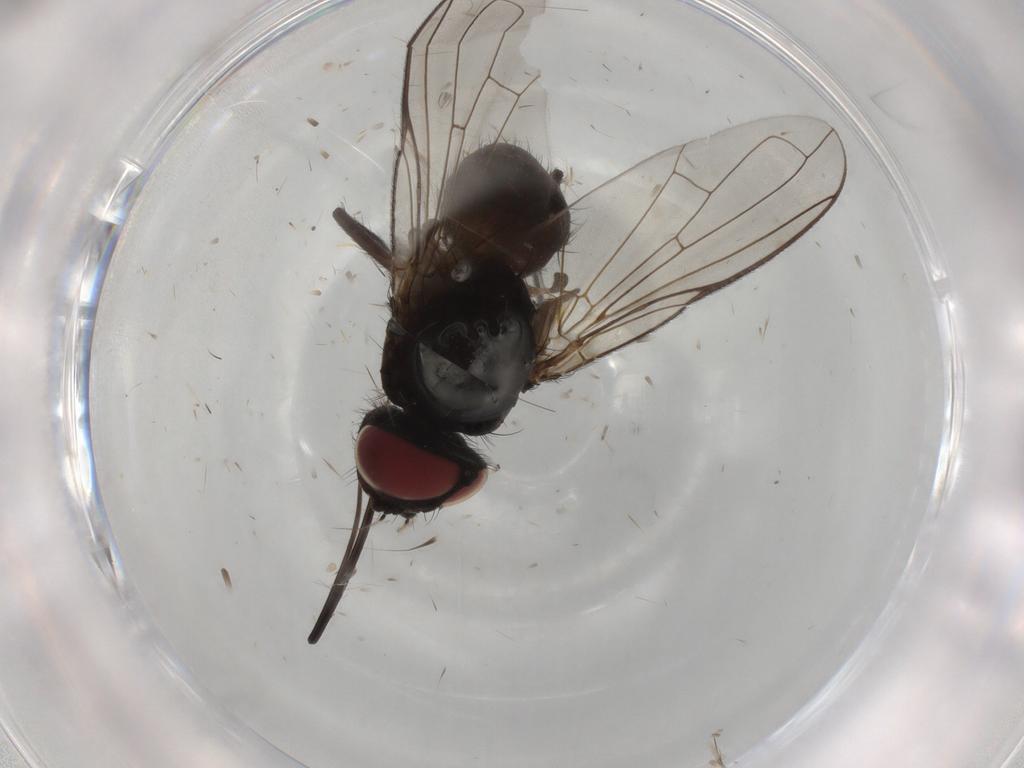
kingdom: Animalia
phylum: Arthropoda
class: Insecta
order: Diptera
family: Tachinidae
